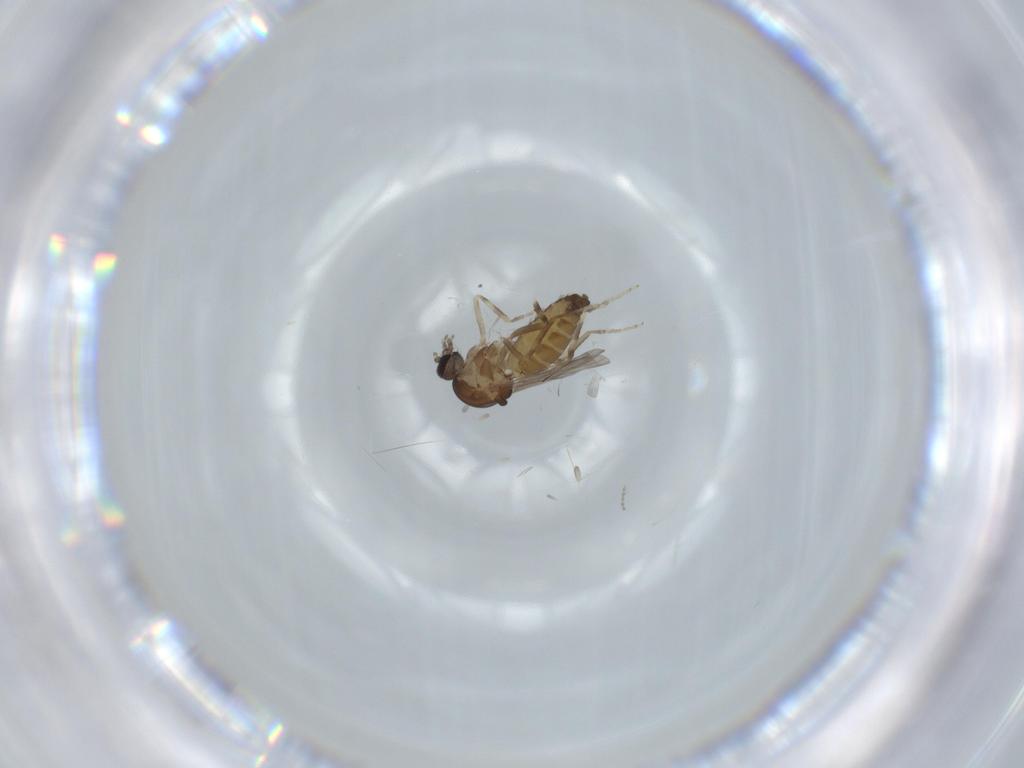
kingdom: Animalia
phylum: Arthropoda
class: Insecta
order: Diptera
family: Ceratopogonidae
